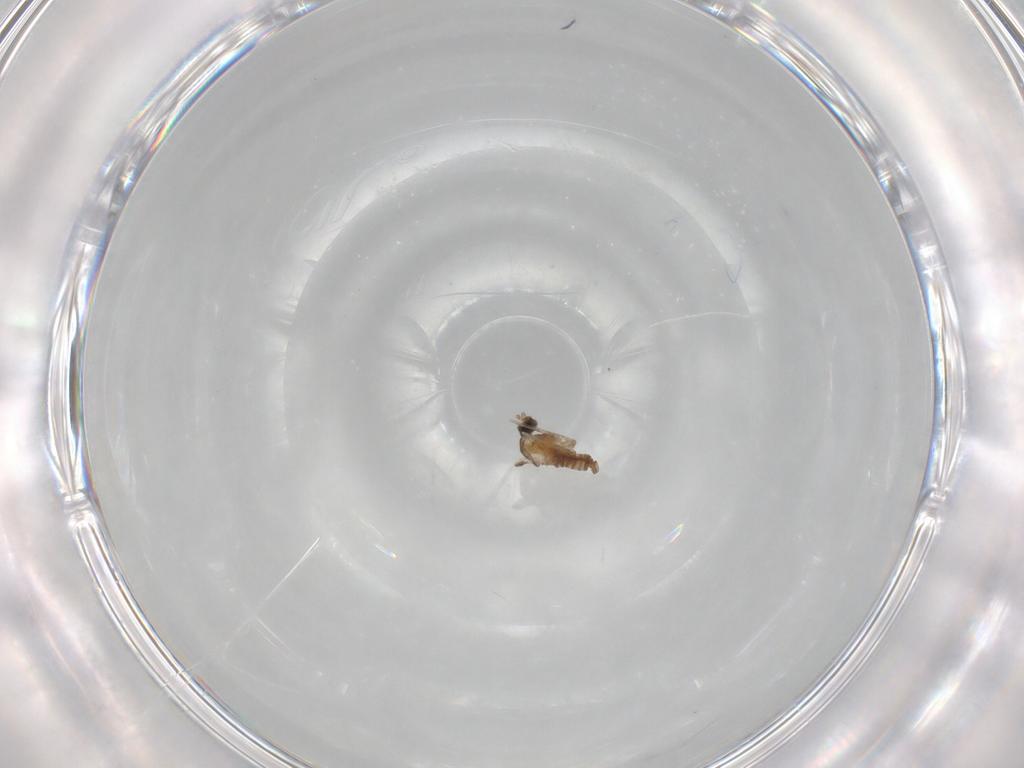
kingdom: Animalia
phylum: Arthropoda
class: Insecta
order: Diptera
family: Cecidomyiidae
